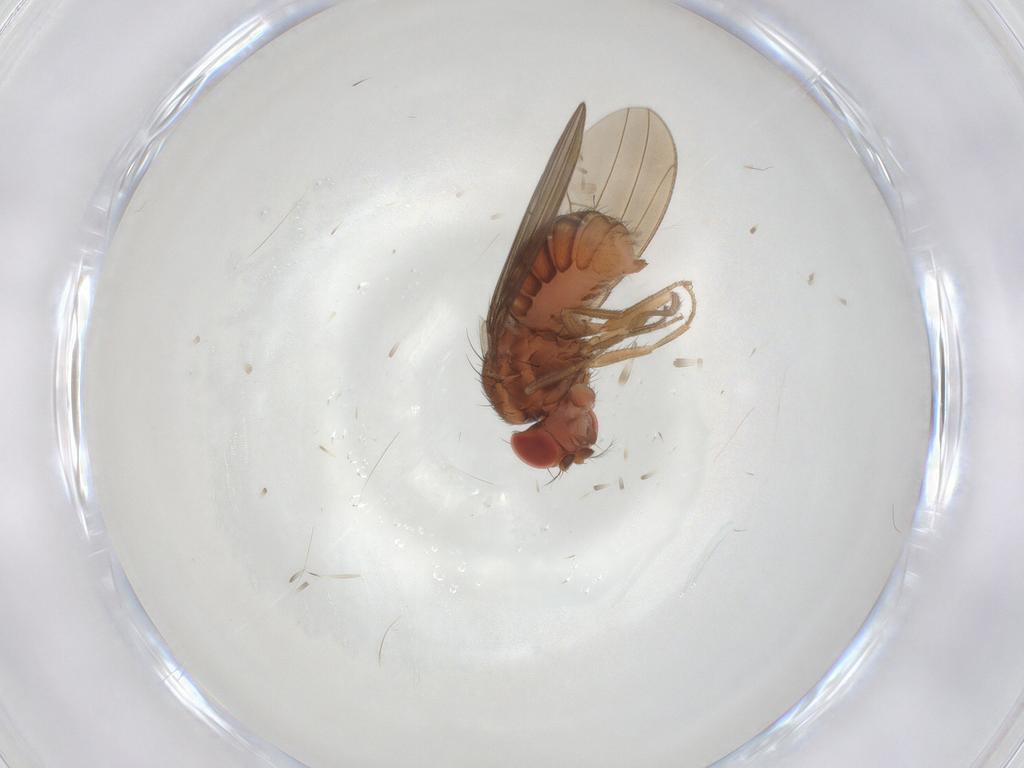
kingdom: Animalia
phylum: Arthropoda
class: Insecta
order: Diptera
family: Drosophilidae
